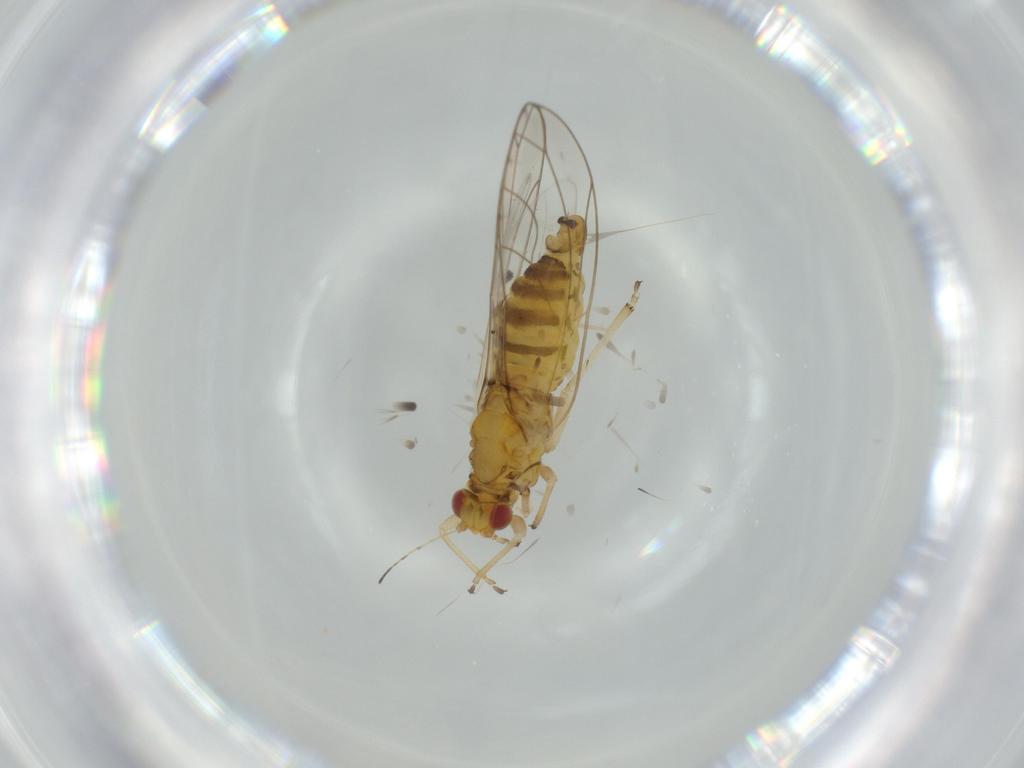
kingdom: Animalia
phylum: Arthropoda
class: Insecta
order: Hemiptera
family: Triozidae
